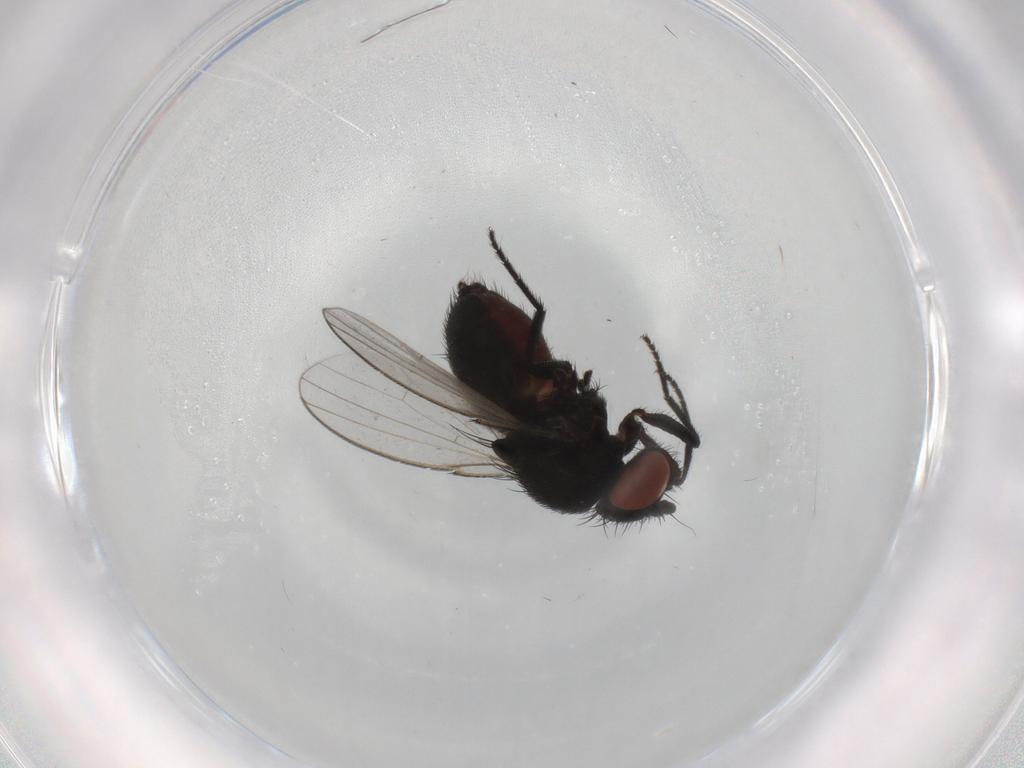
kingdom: Animalia
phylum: Arthropoda
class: Insecta
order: Diptera
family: Milichiidae
